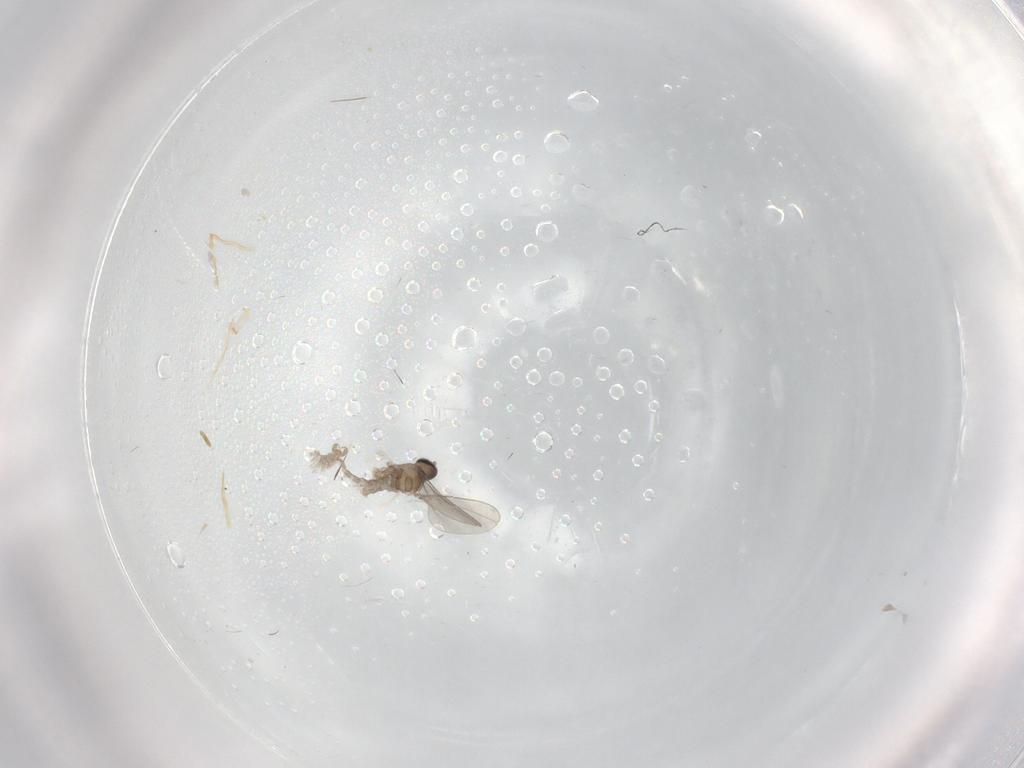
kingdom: Animalia
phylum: Arthropoda
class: Insecta
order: Diptera
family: Sciaridae
